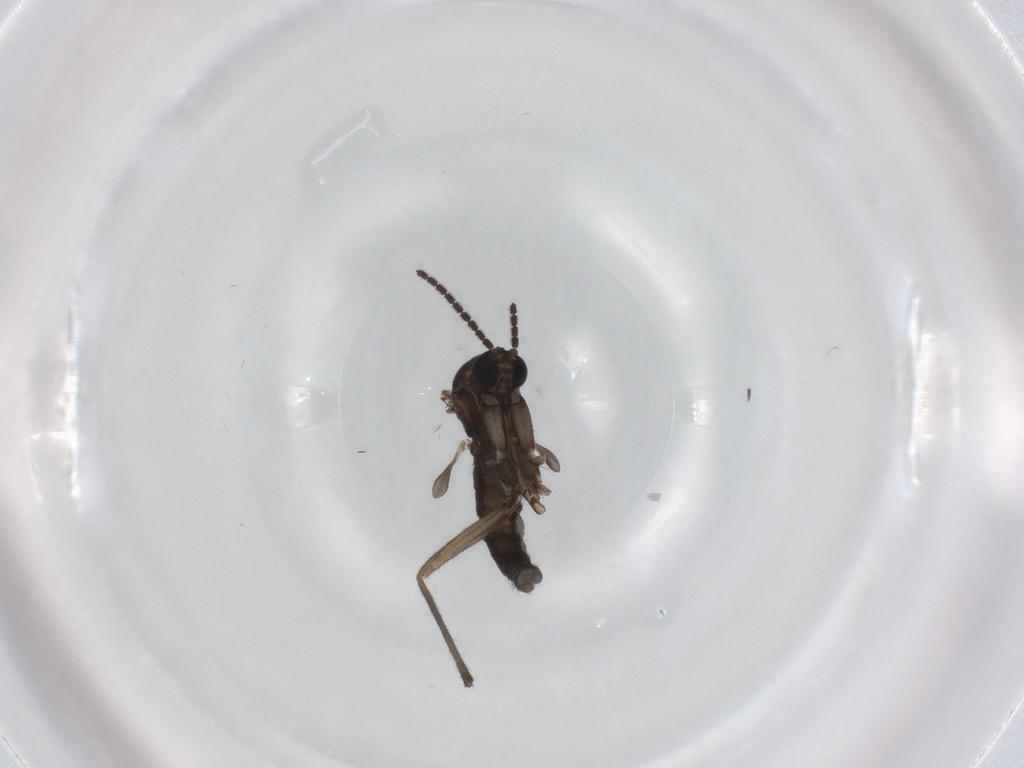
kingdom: Animalia
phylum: Arthropoda
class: Insecta
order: Diptera
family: Sciaridae
